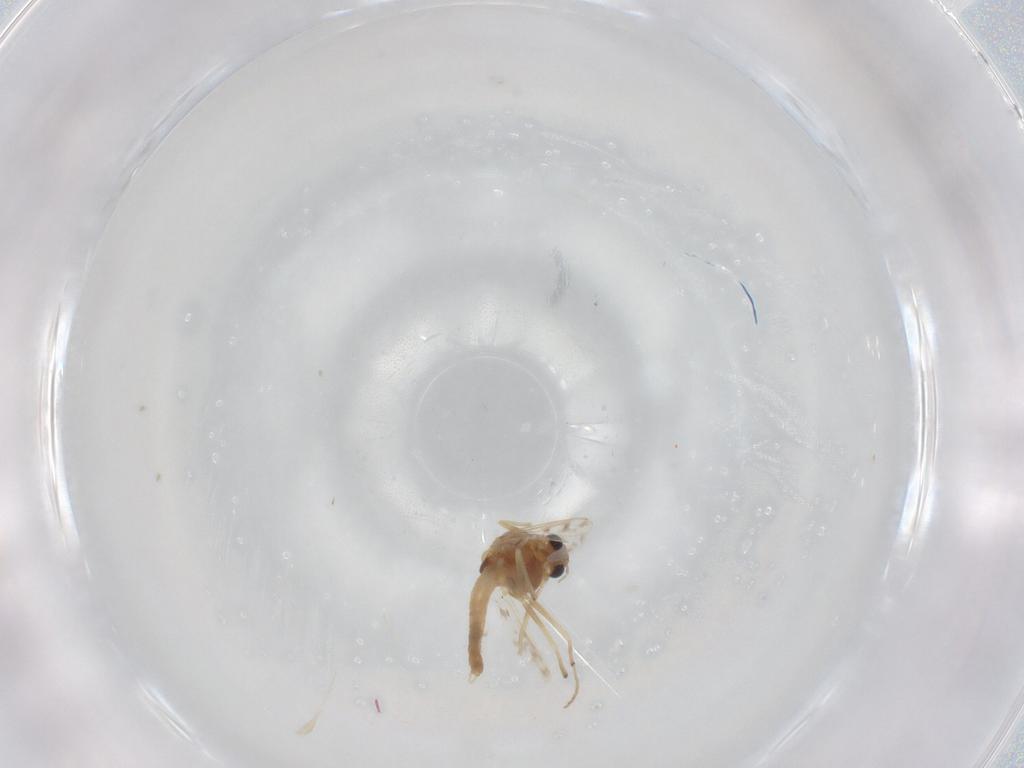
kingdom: Animalia
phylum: Arthropoda
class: Insecta
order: Diptera
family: Chironomidae
